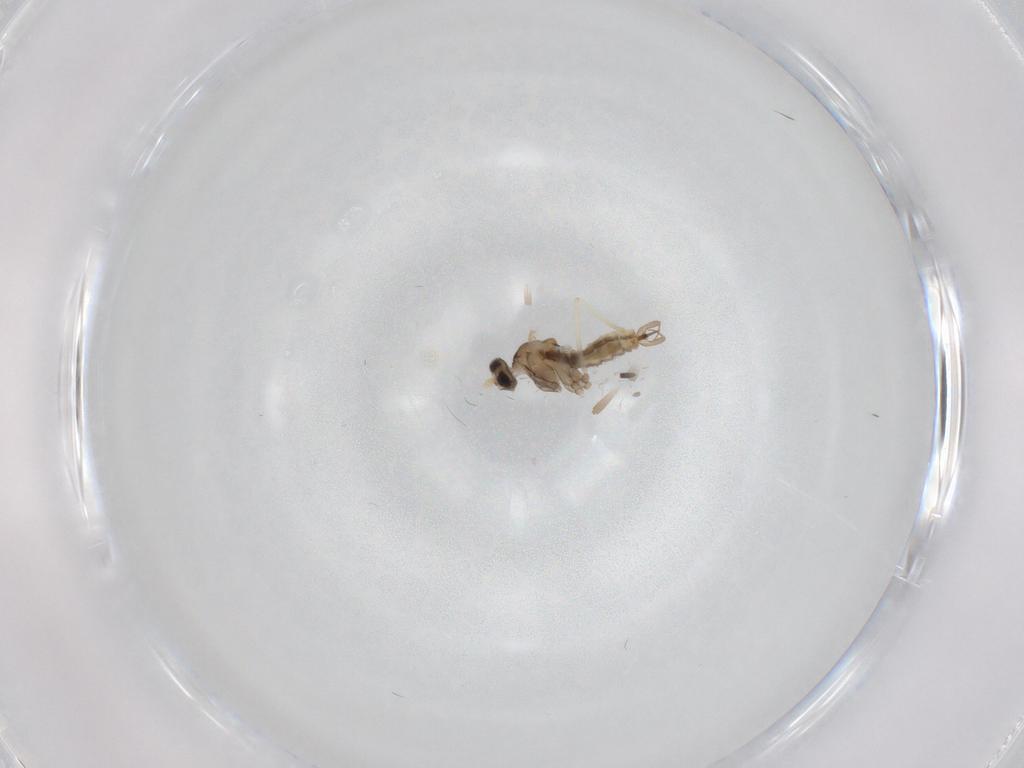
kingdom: Animalia
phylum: Arthropoda
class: Insecta
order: Diptera
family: Cecidomyiidae
